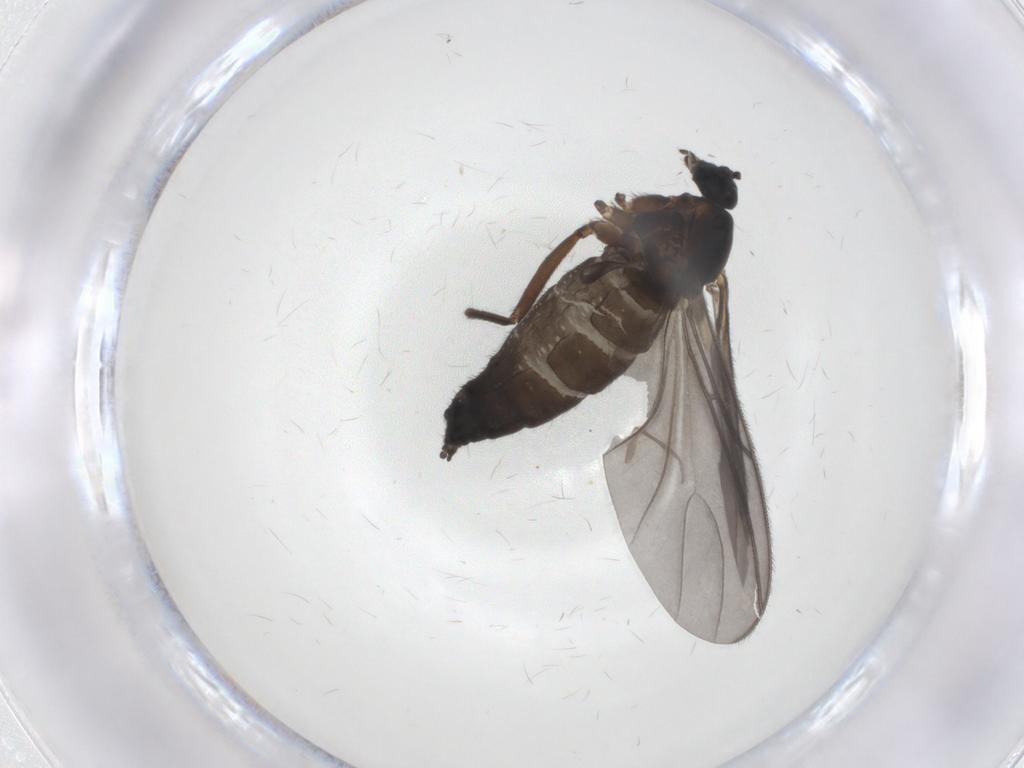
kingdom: Animalia
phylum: Arthropoda
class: Insecta
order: Diptera
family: Sciaridae
